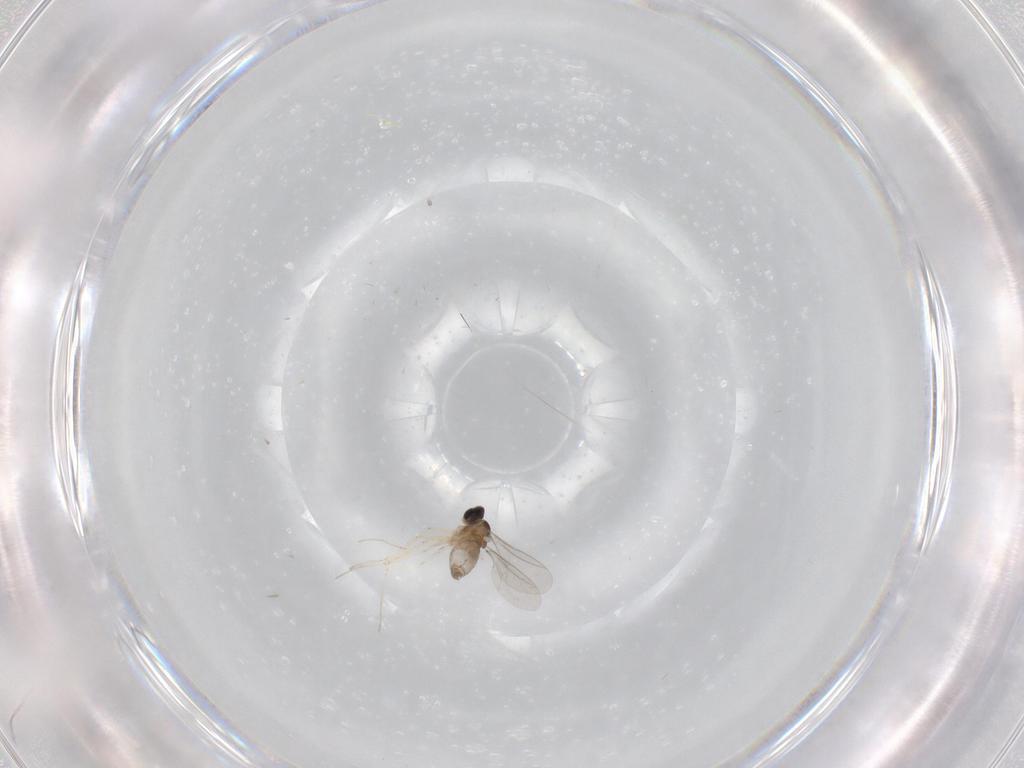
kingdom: Animalia
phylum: Arthropoda
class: Insecta
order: Diptera
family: Cecidomyiidae
